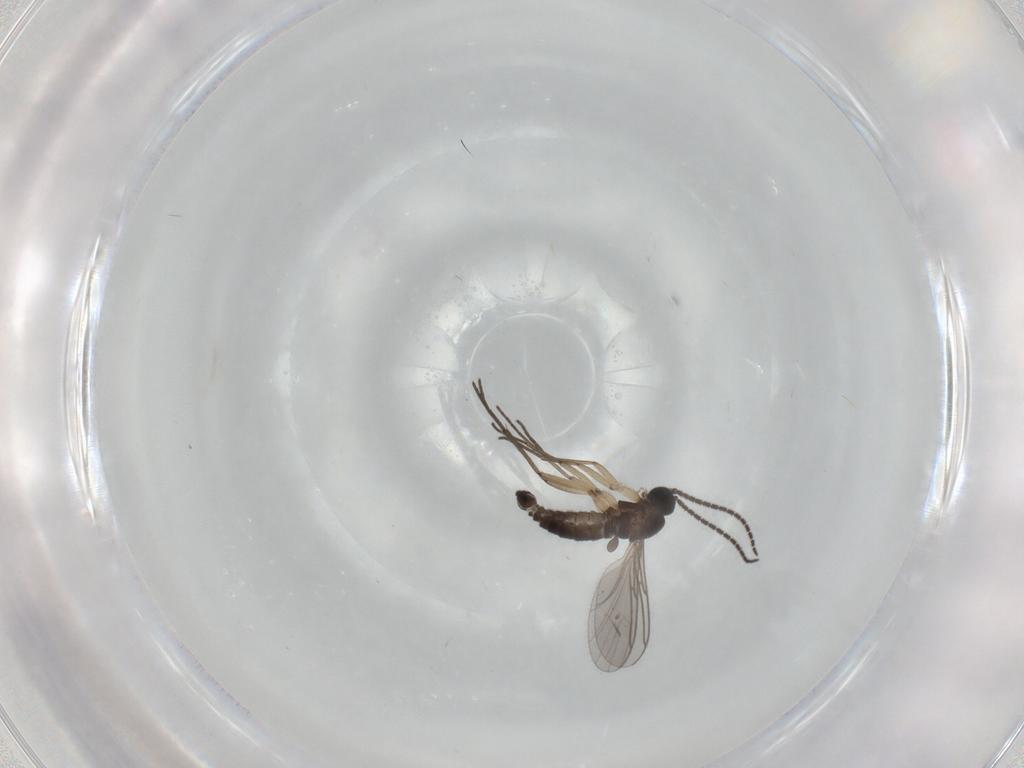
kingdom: Animalia
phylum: Arthropoda
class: Insecta
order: Diptera
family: Sciaridae
